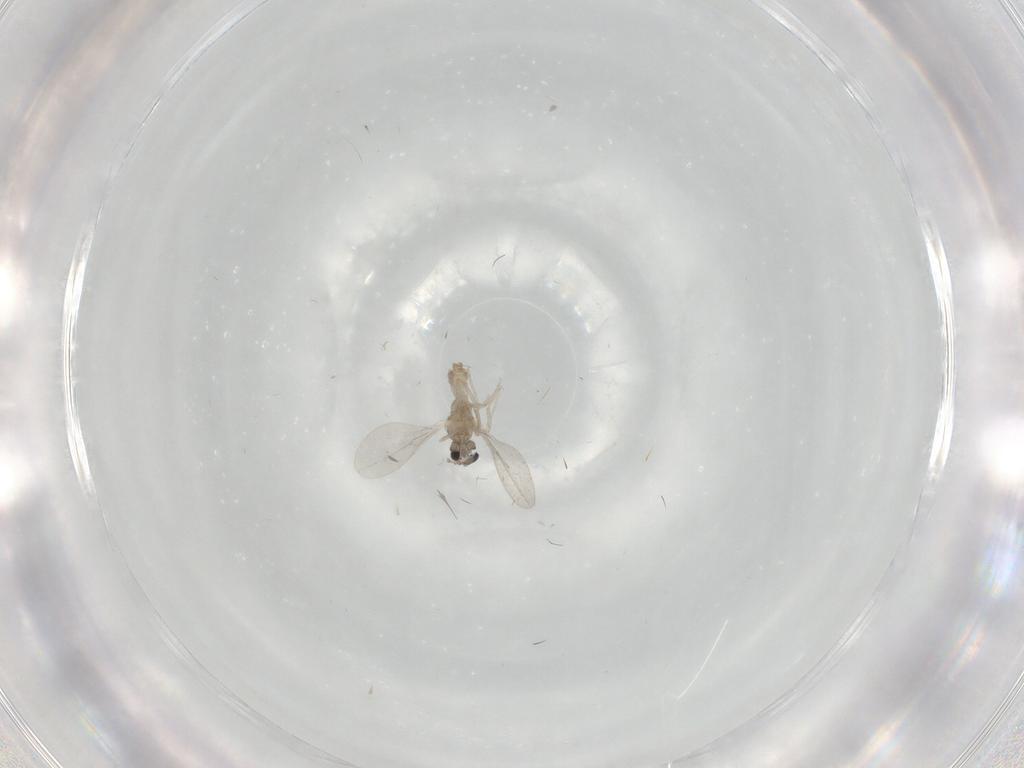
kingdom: Animalia
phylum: Arthropoda
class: Insecta
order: Diptera
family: Cecidomyiidae
